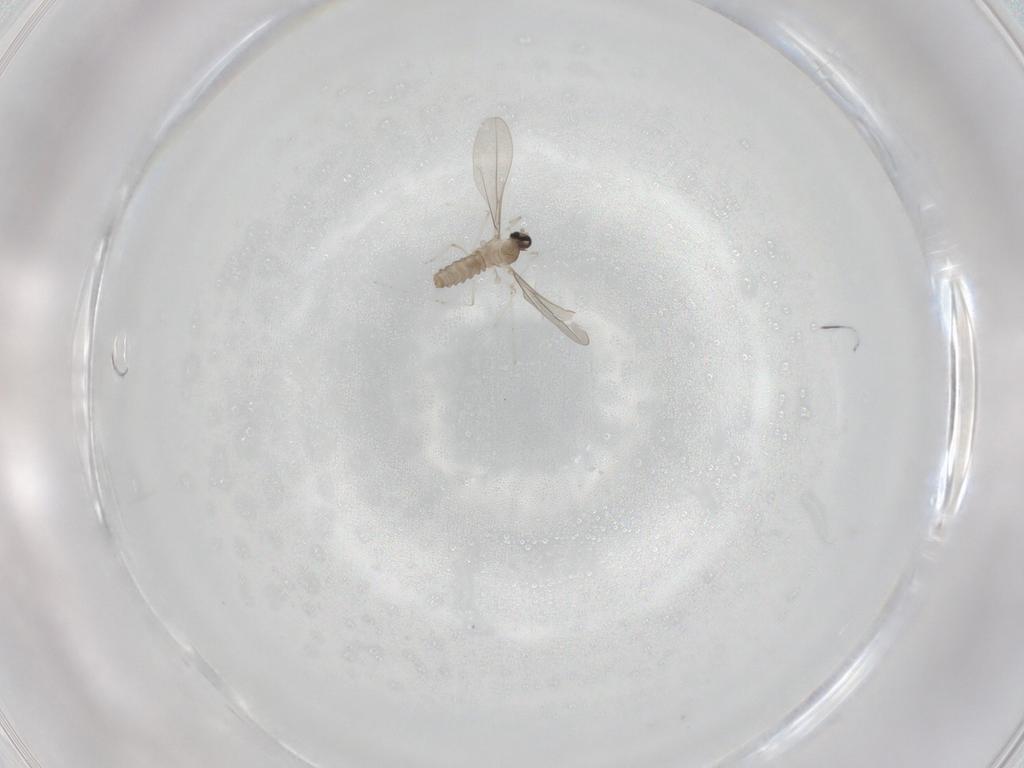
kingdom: Animalia
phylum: Arthropoda
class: Insecta
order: Diptera
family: Cecidomyiidae
